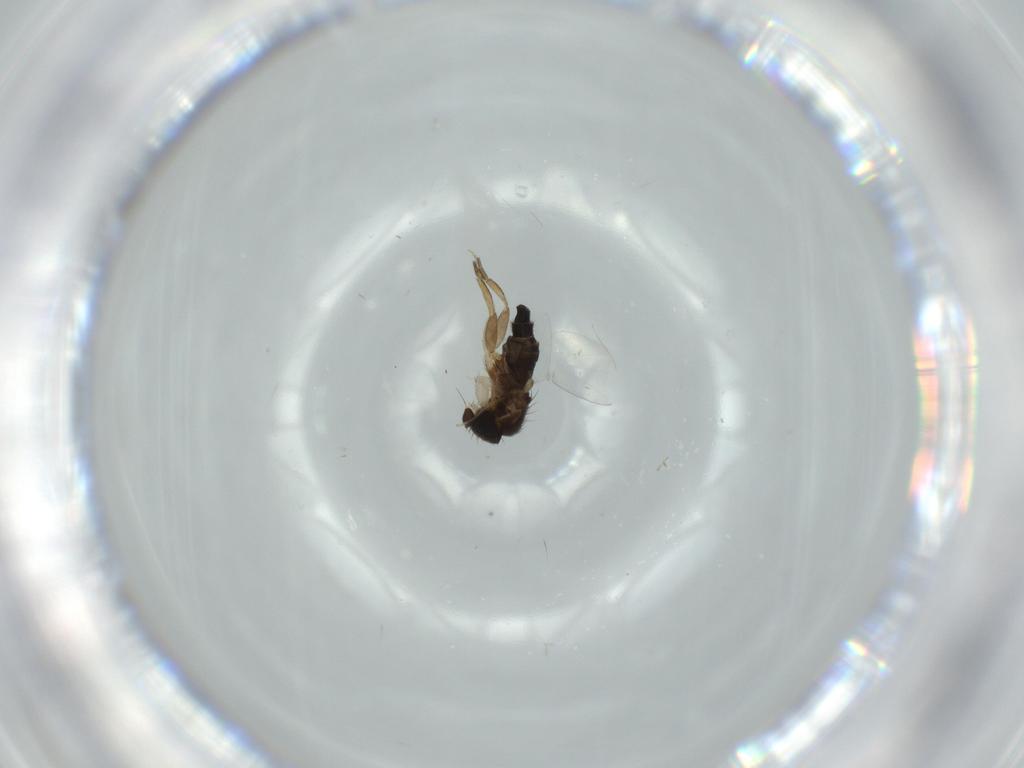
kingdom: Animalia
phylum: Arthropoda
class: Insecta
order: Diptera
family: Phoridae
